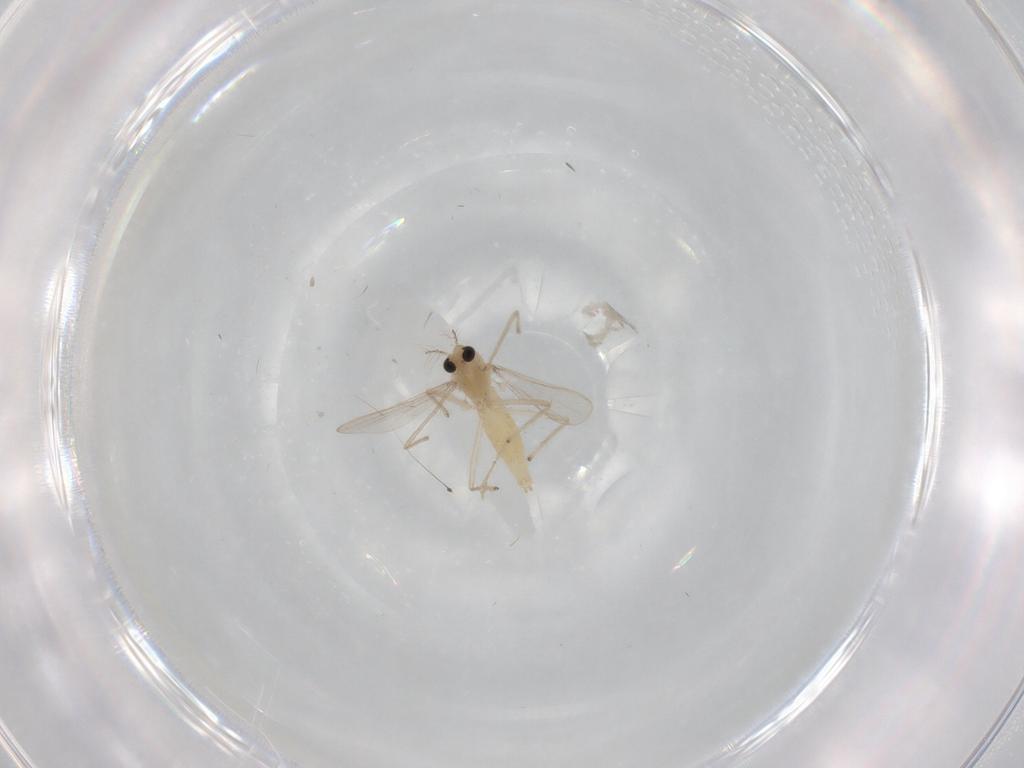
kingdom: Animalia
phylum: Arthropoda
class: Insecta
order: Diptera
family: Chironomidae
